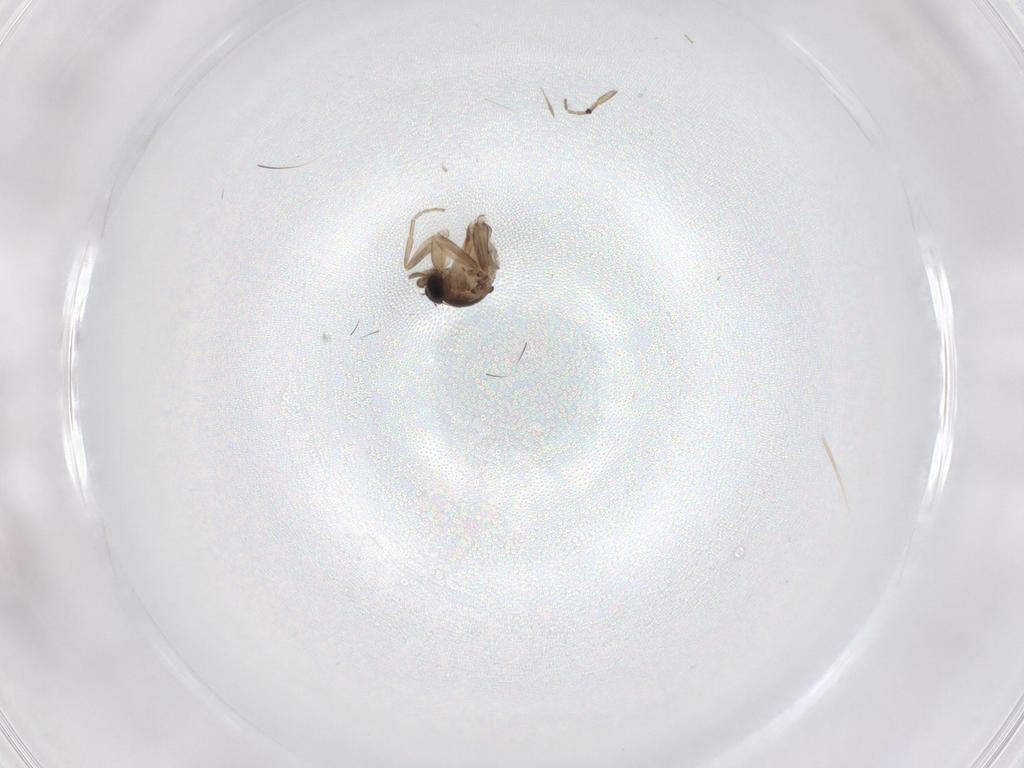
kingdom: Animalia
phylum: Arthropoda
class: Insecta
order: Diptera
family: Phoridae
